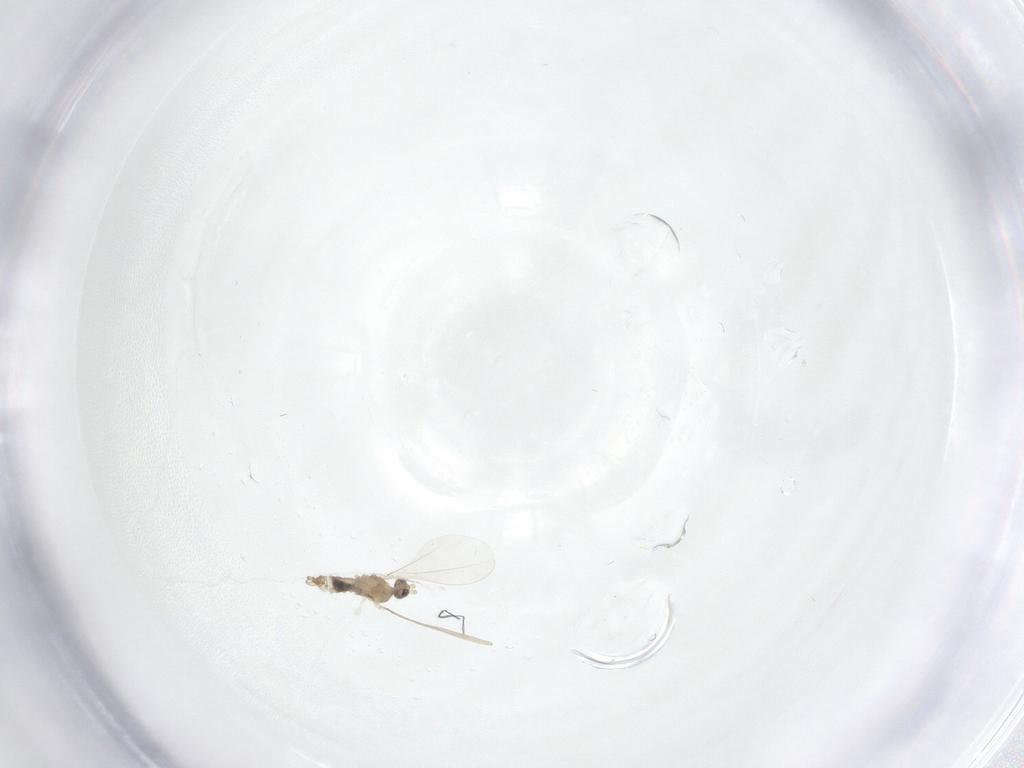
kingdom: Animalia
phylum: Arthropoda
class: Insecta
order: Diptera
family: Cecidomyiidae
